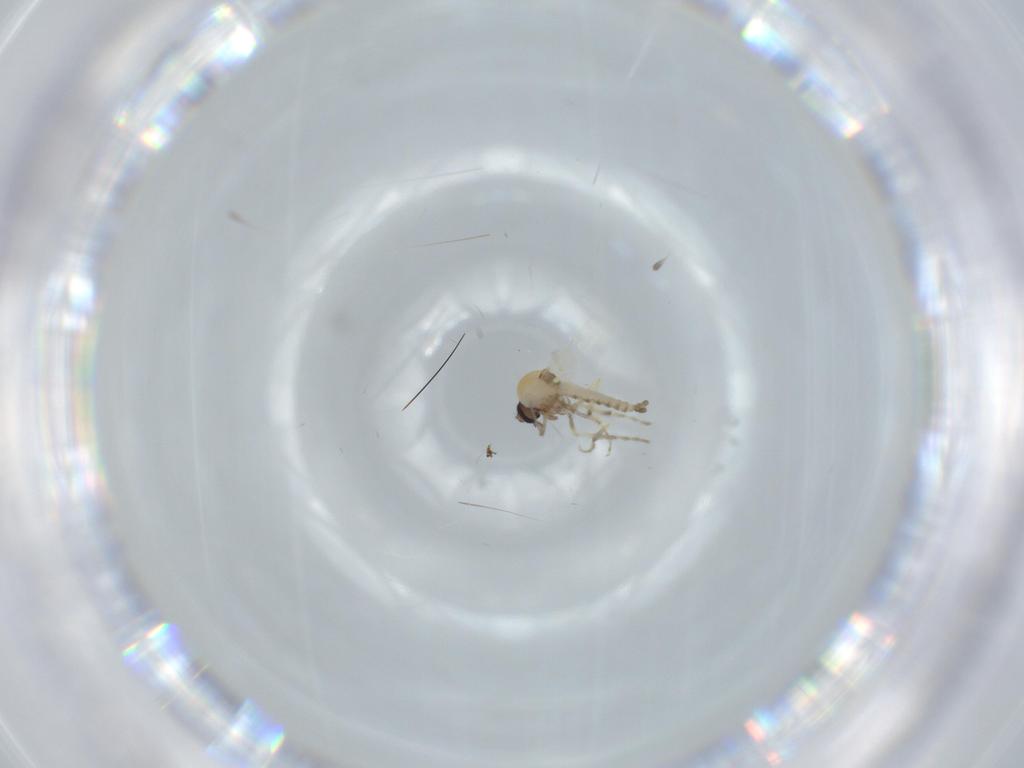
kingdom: Animalia
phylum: Arthropoda
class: Insecta
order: Diptera
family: Ceratopogonidae
